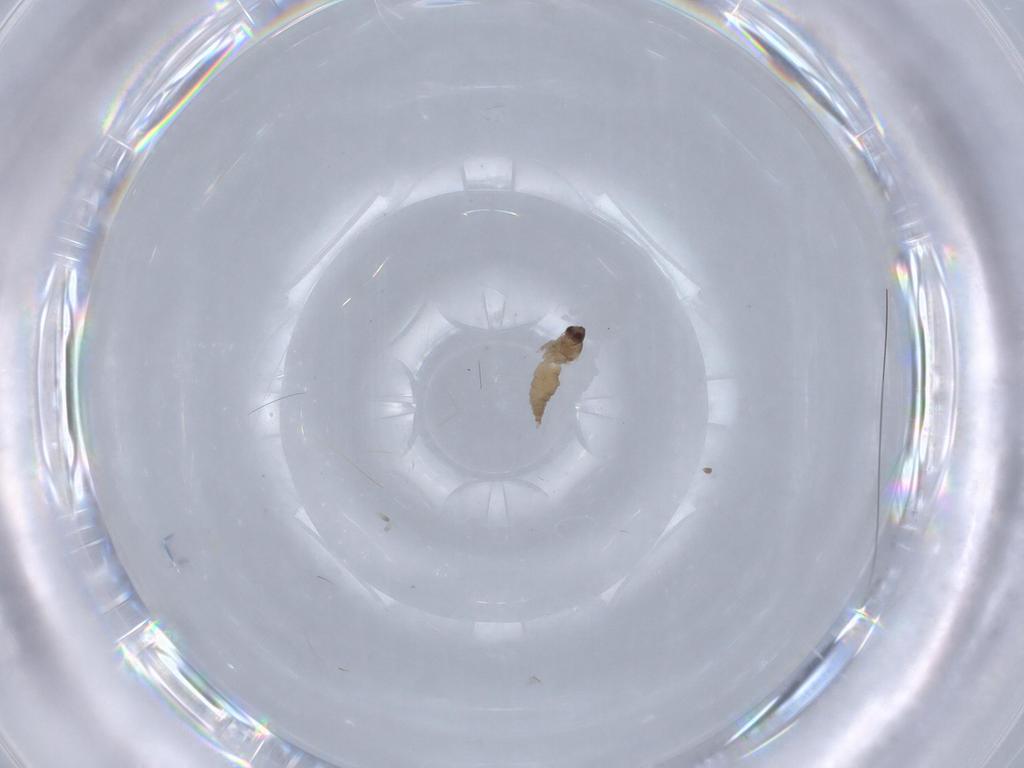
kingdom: Animalia
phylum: Arthropoda
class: Insecta
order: Diptera
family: Cecidomyiidae
